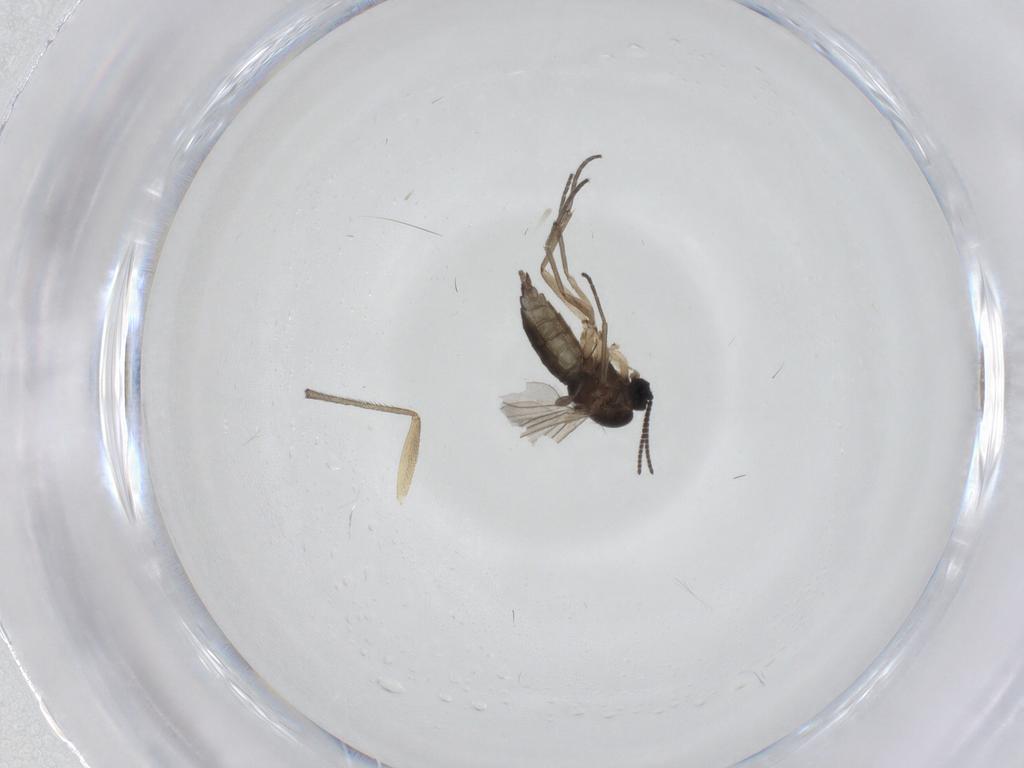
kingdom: Animalia
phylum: Arthropoda
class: Insecta
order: Diptera
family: Sciaridae
